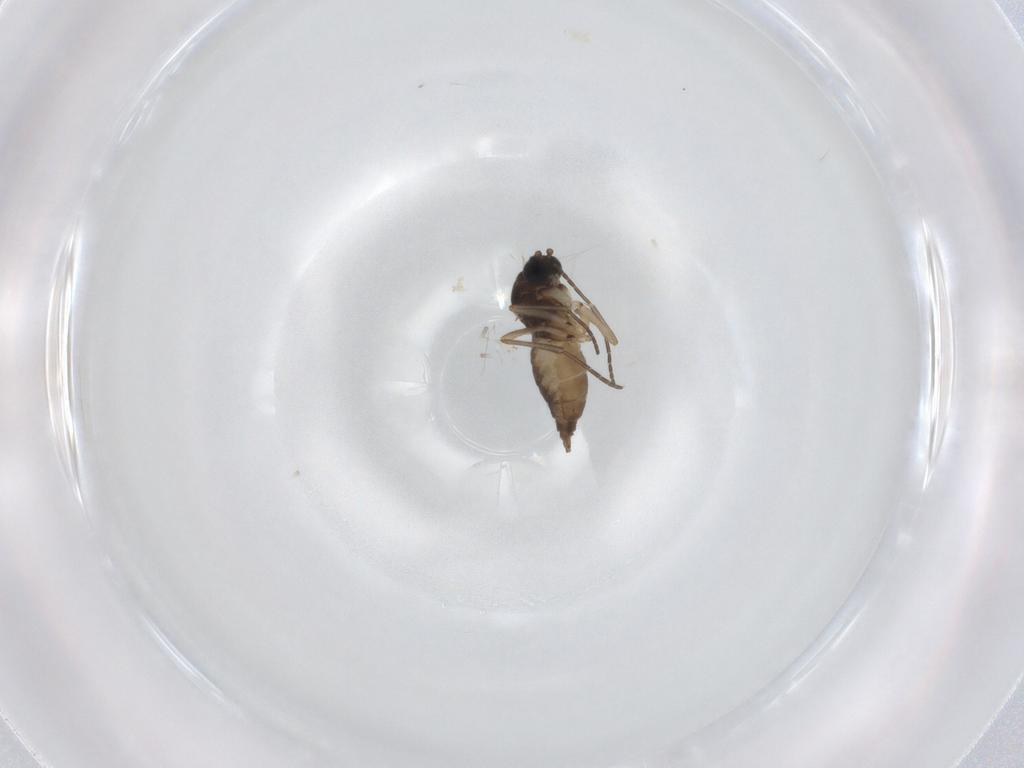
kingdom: Animalia
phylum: Arthropoda
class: Insecta
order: Diptera
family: Sciaridae
